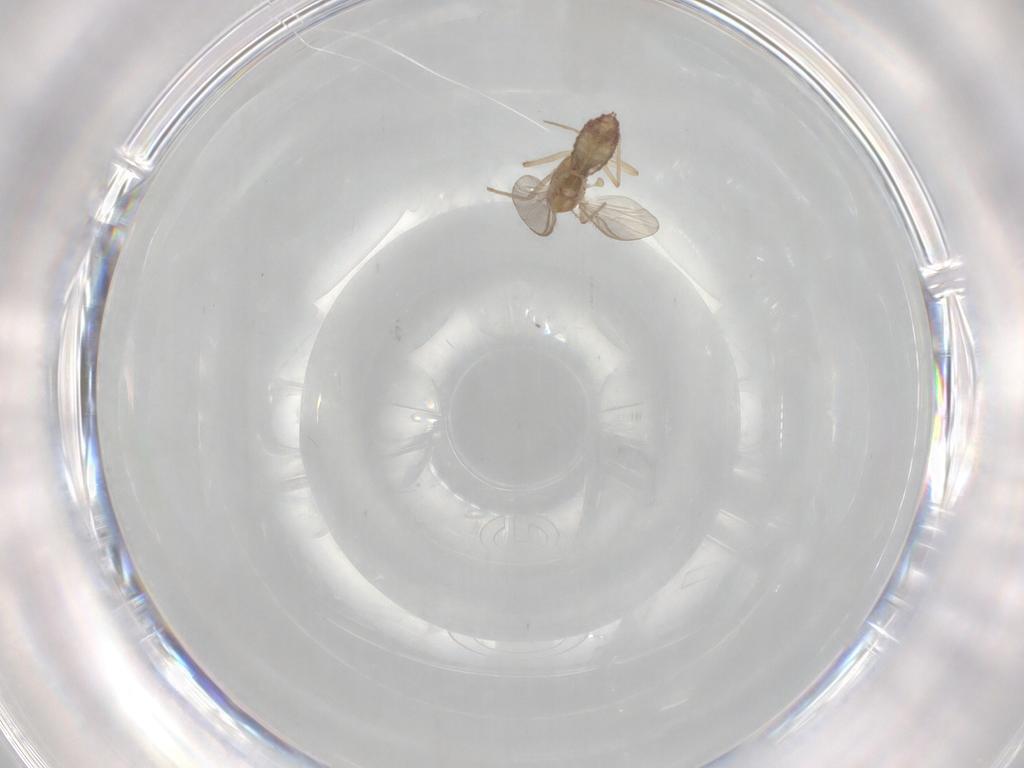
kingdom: Animalia
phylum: Arthropoda
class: Insecta
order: Diptera
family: Chironomidae
